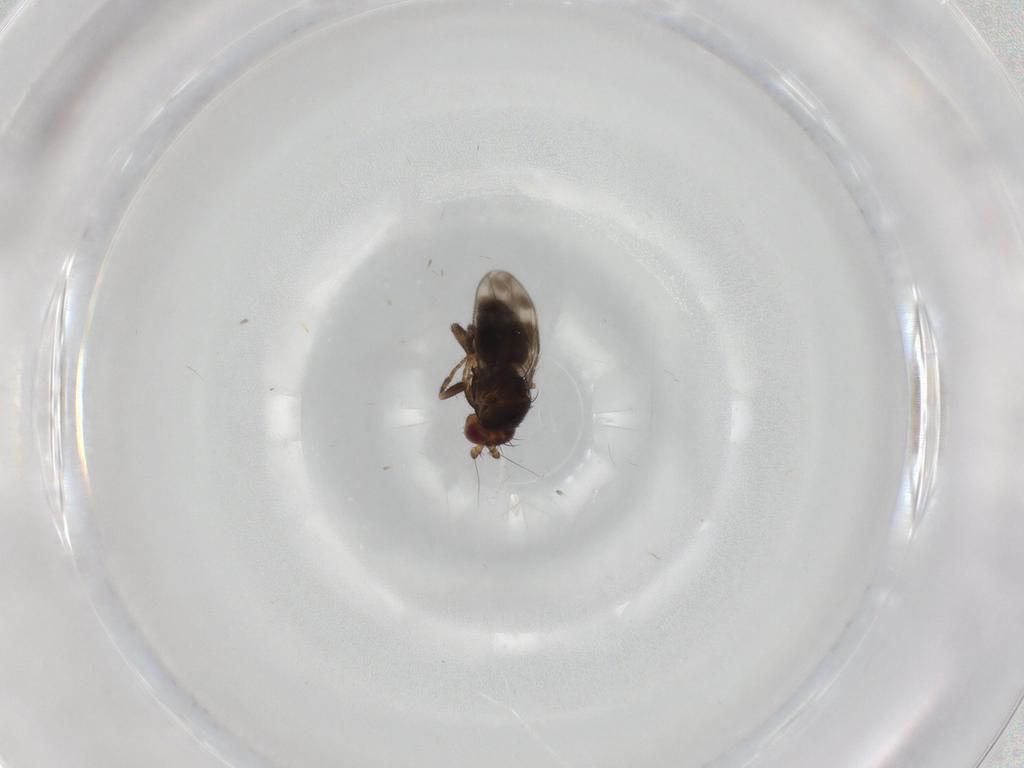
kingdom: Animalia
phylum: Arthropoda
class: Insecta
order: Diptera
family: Sphaeroceridae
